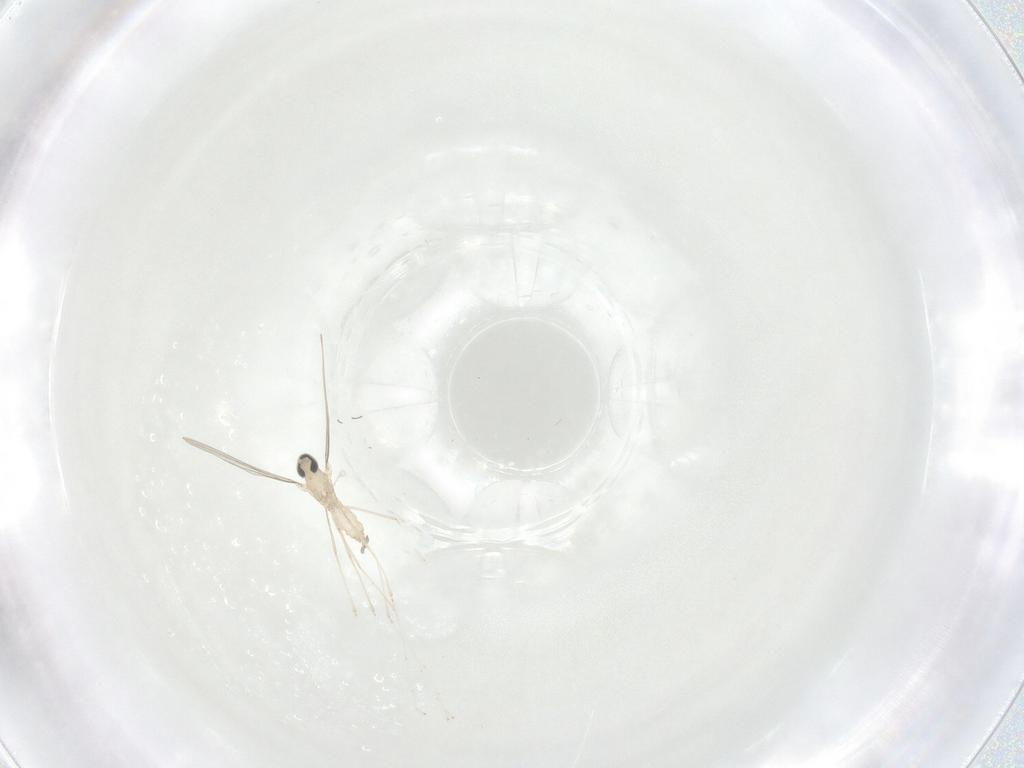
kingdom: Animalia
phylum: Arthropoda
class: Insecta
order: Diptera
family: Cecidomyiidae
